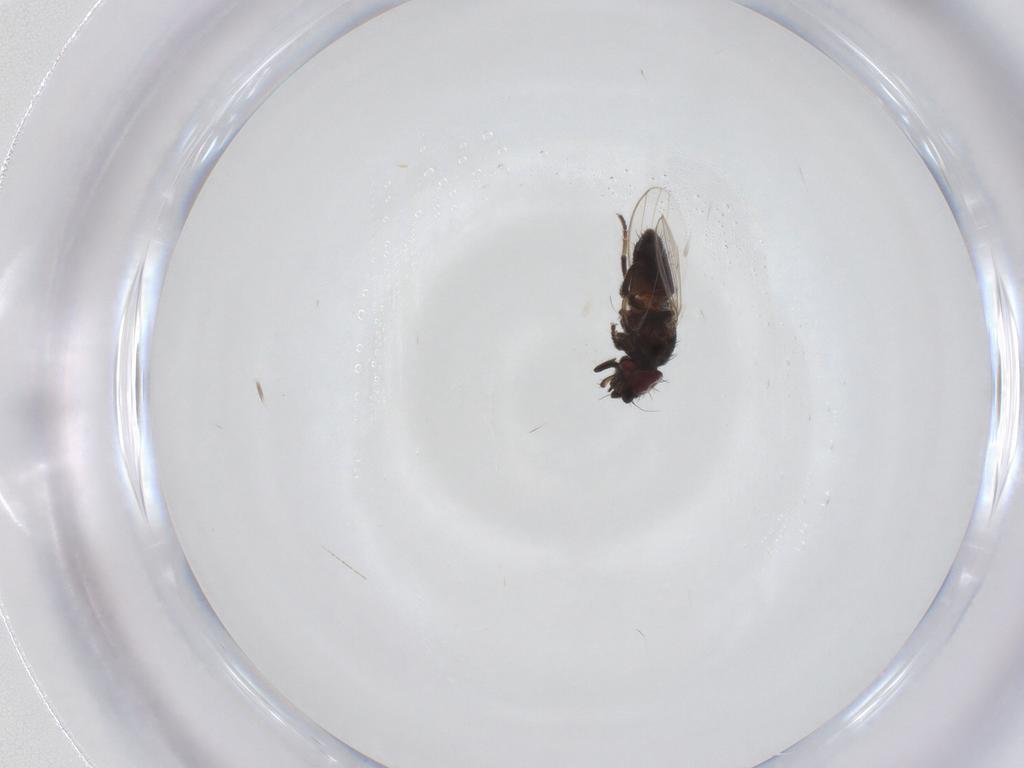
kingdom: Animalia
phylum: Arthropoda
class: Insecta
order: Diptera
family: Milichiidae
